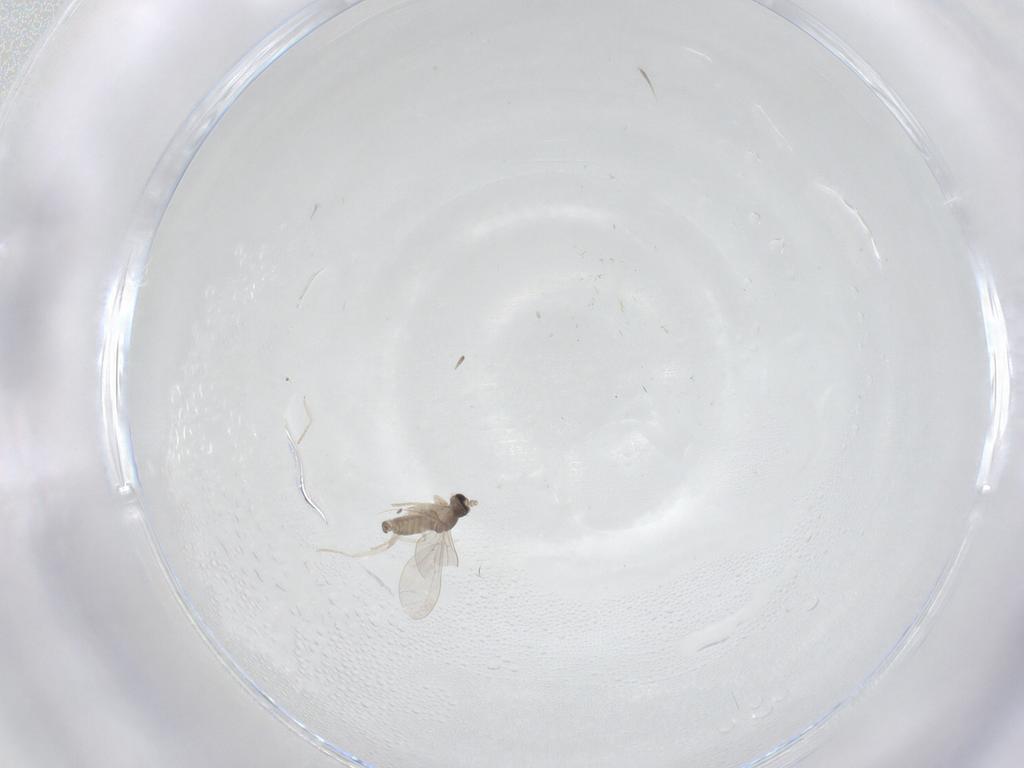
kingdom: Animalia
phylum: Arthropoda
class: Insecta
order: Diptera
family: Cecidomyiidae
